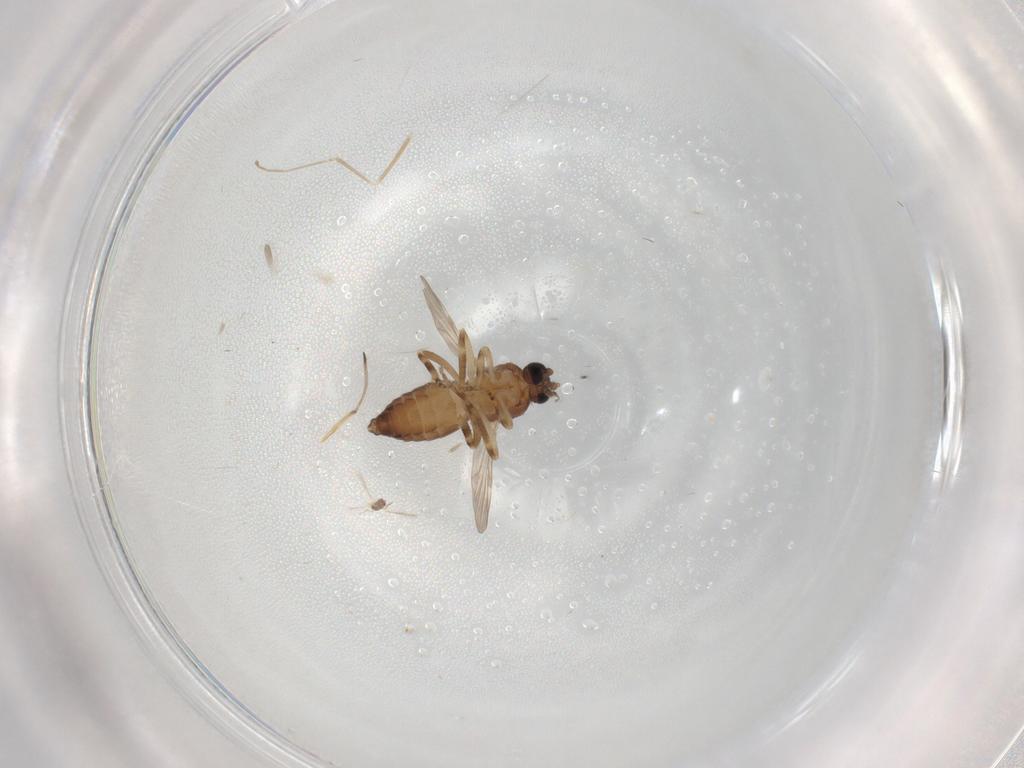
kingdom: Animalia
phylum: Arthropoda
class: Insecta
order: Diptera
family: Ceratopogonidae
